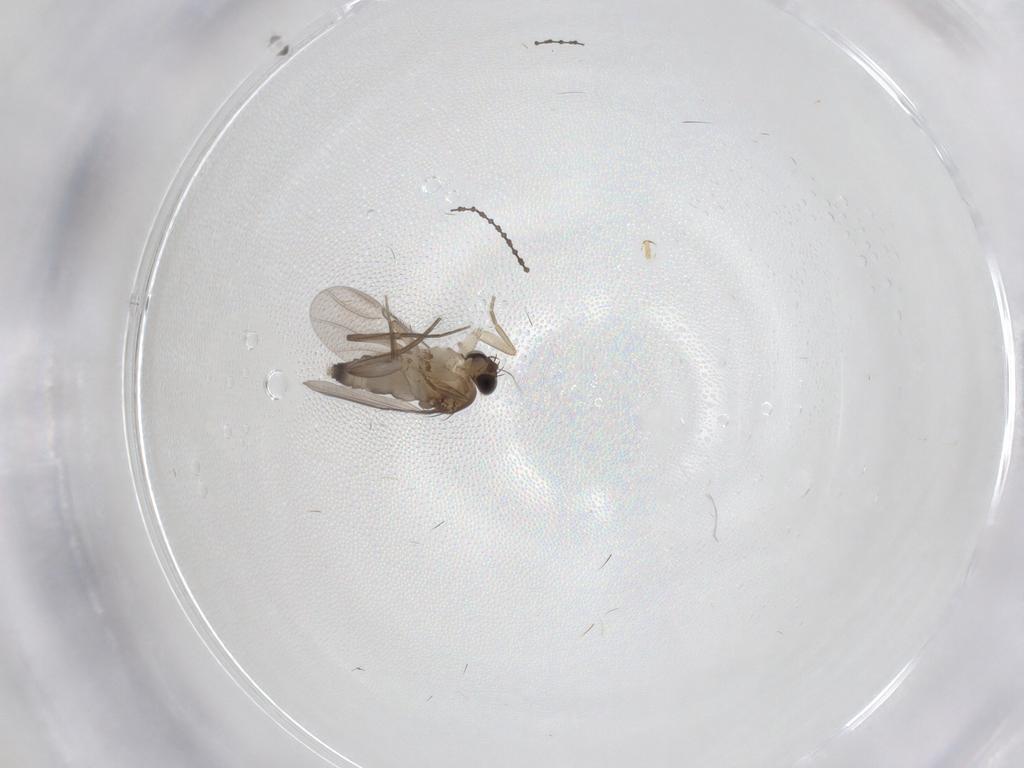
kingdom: Animalia
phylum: Arthropoda
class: Insecta
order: Diptera
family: Phoridae
